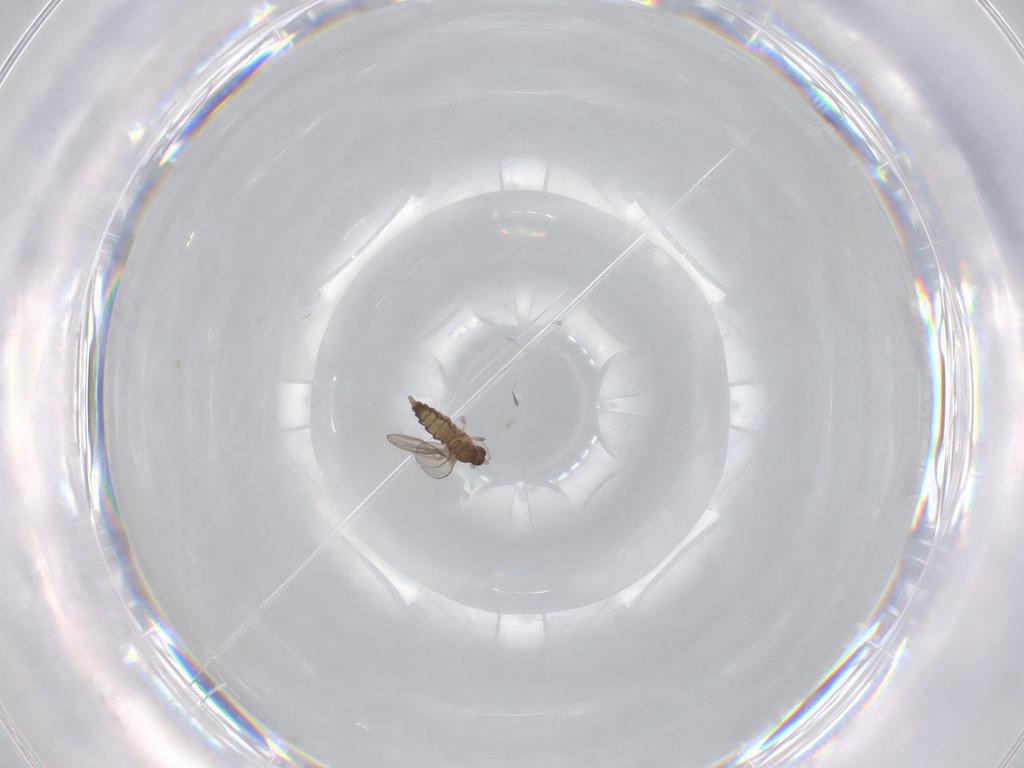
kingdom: Animalia
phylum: Arthropoda
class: Insecta
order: Diptera
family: Cecidomyiidae
